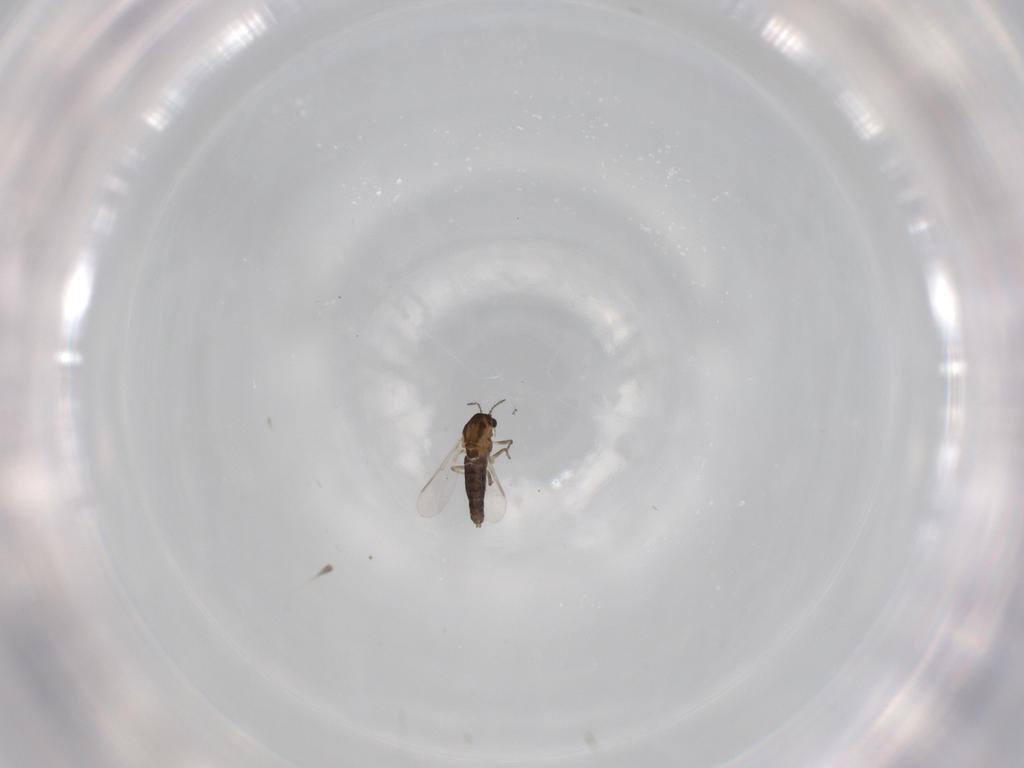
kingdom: Animalia
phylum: Arthropoda
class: Insecta
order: Diptera
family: Chironomidae
